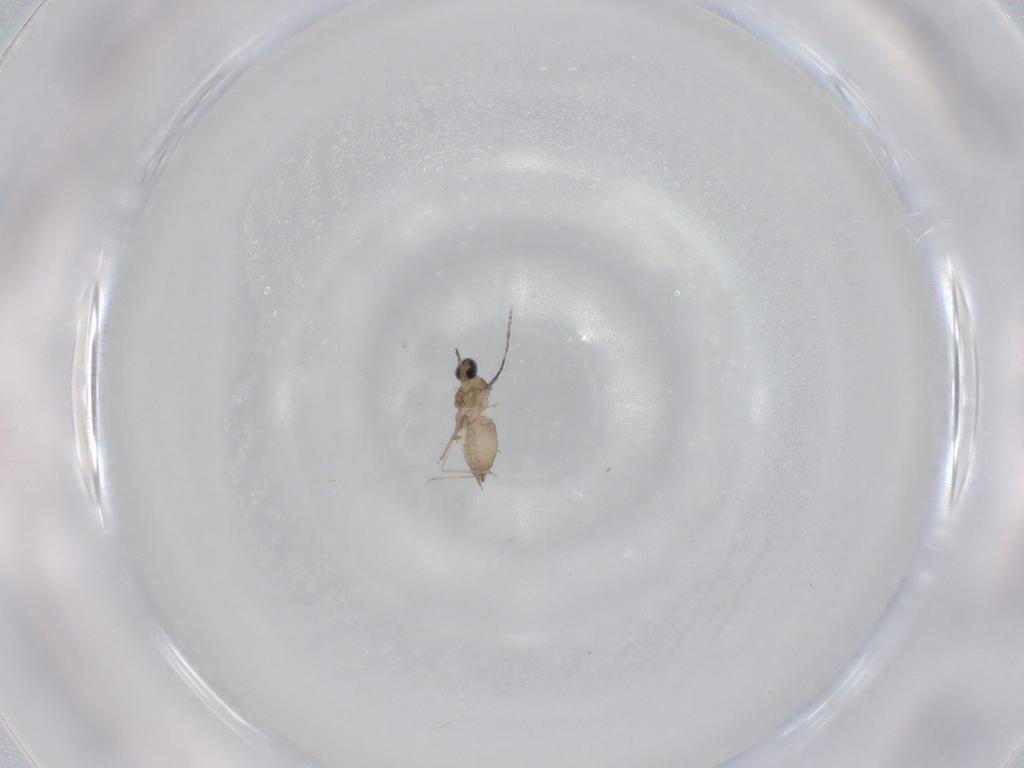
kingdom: Animalia
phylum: Arthropoda
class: Insecta
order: Diptera
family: Cecidomyiidae
